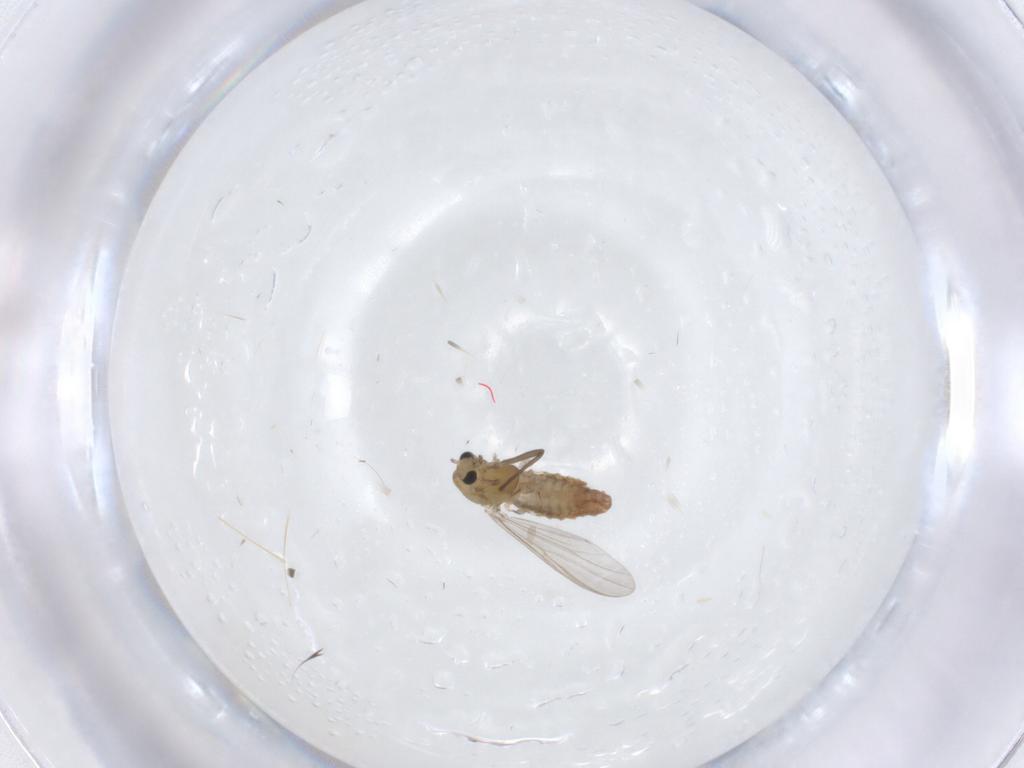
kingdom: Animalia
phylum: Arthropoda
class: Insecta
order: Diptera
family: Chironomidae
